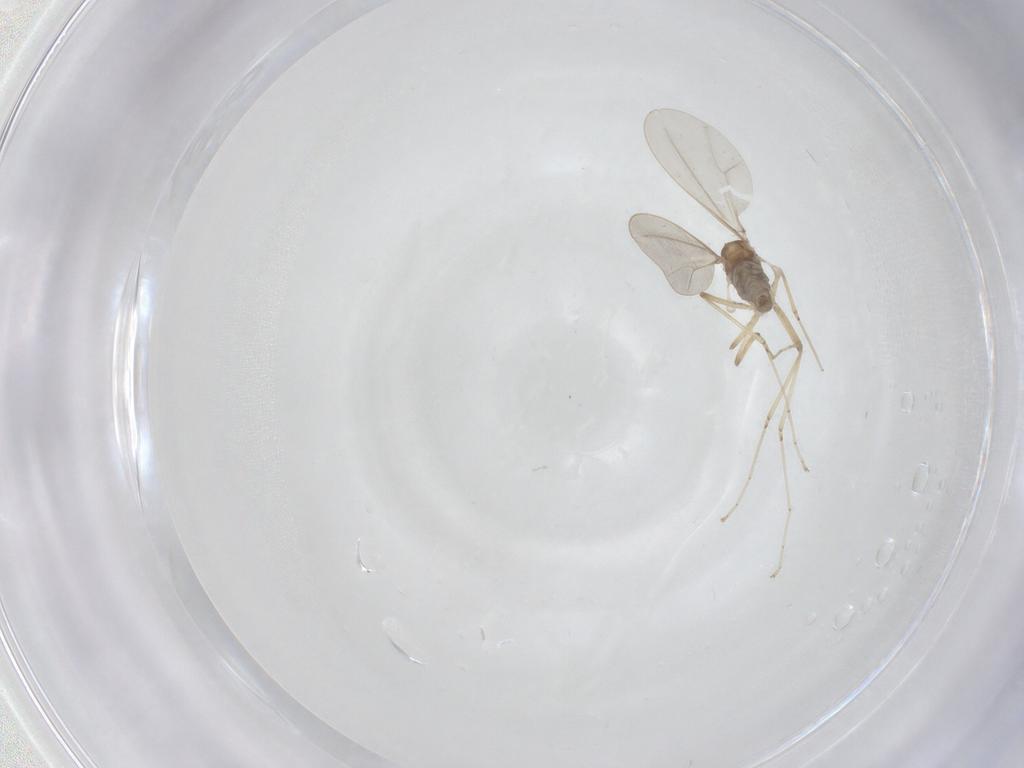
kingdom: Animalia
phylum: Arthropoda
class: Insecta
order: Diptera
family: Cecidomyiidae
